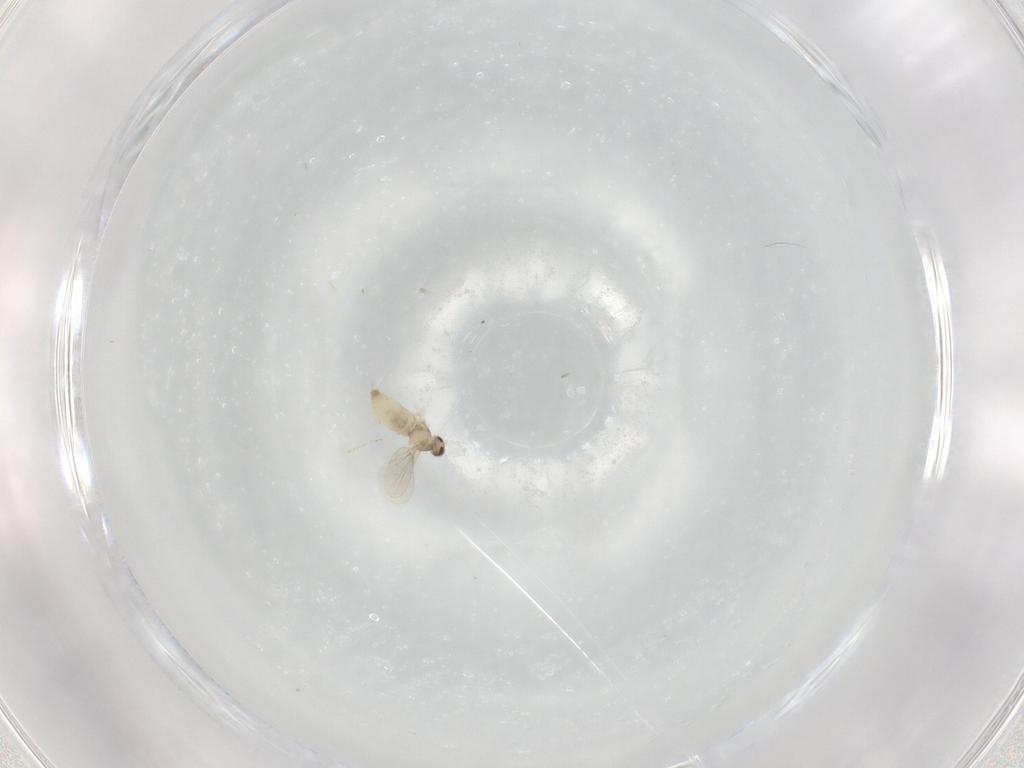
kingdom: Animalia
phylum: Arthropoda
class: Insecta
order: Diptera
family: Cecidomyiidae
